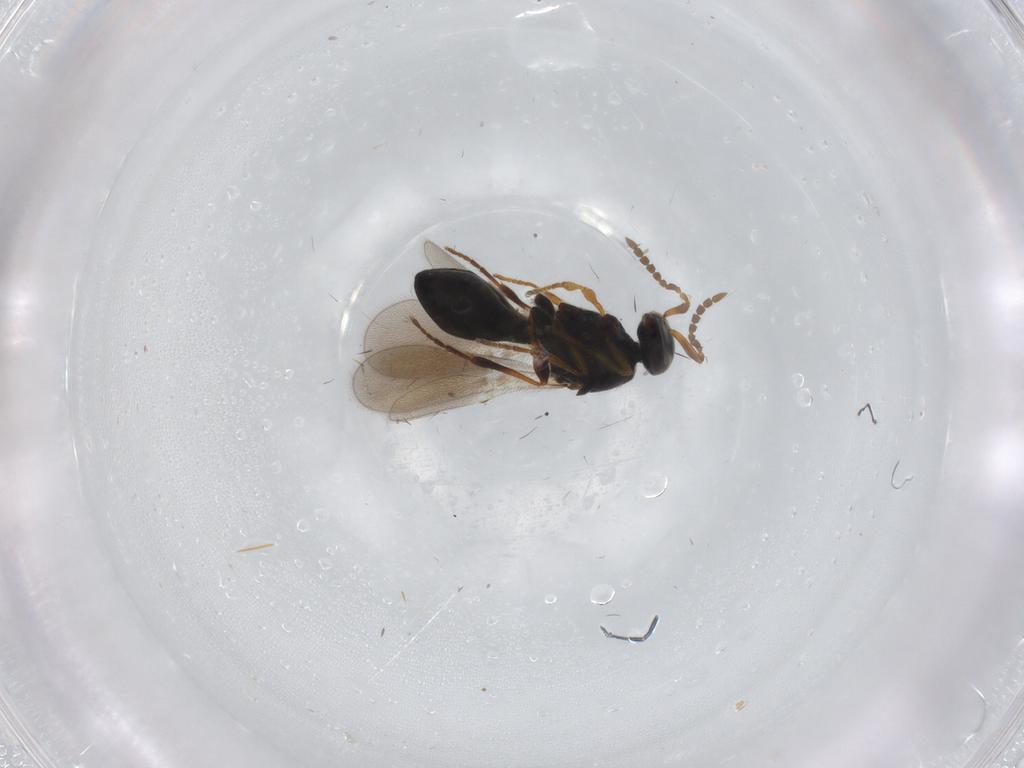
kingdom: Animalia
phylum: Arthropoda
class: Insecta
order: Hymenoptera
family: Platygastridae
